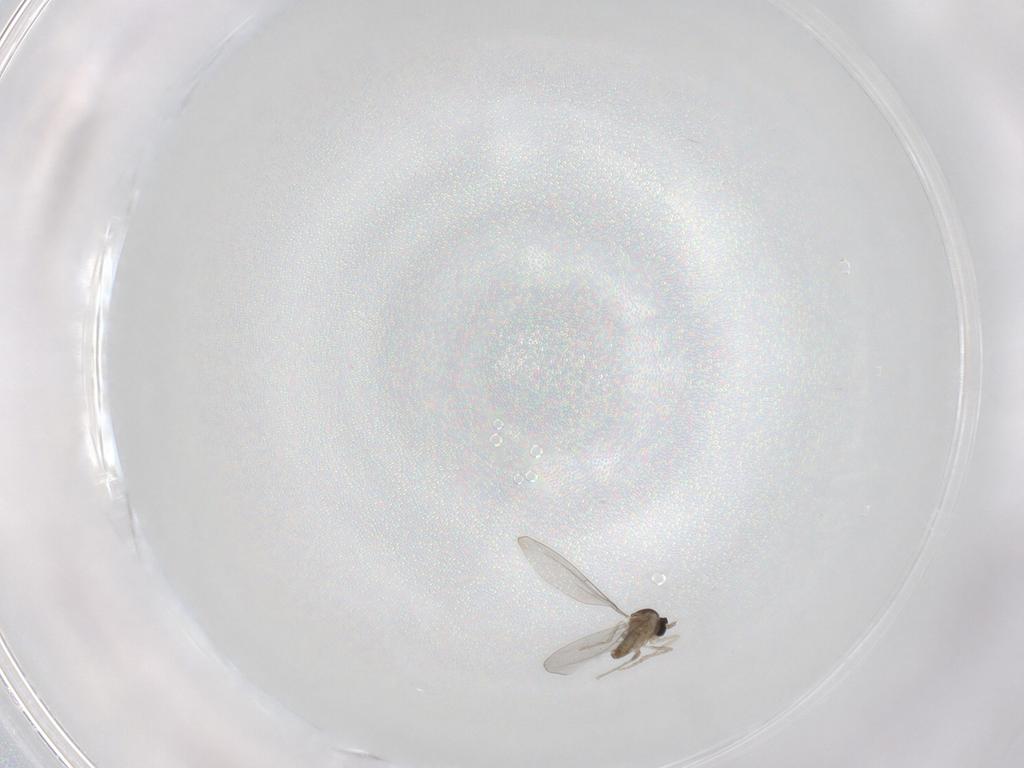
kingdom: Animalia
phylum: Arthropoda
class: Insecta
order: Diptera
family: Cecidomyiidae
